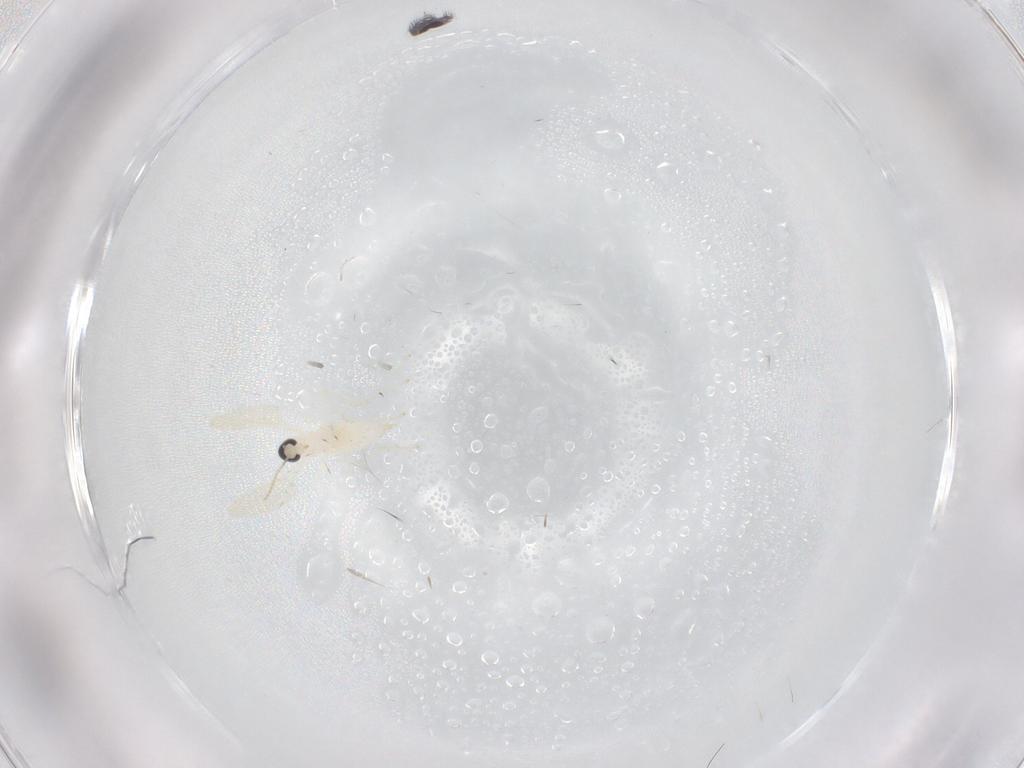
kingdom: Animalia
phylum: Arthropoda
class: Insecta
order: Diptera
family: Cecidomyiidae
